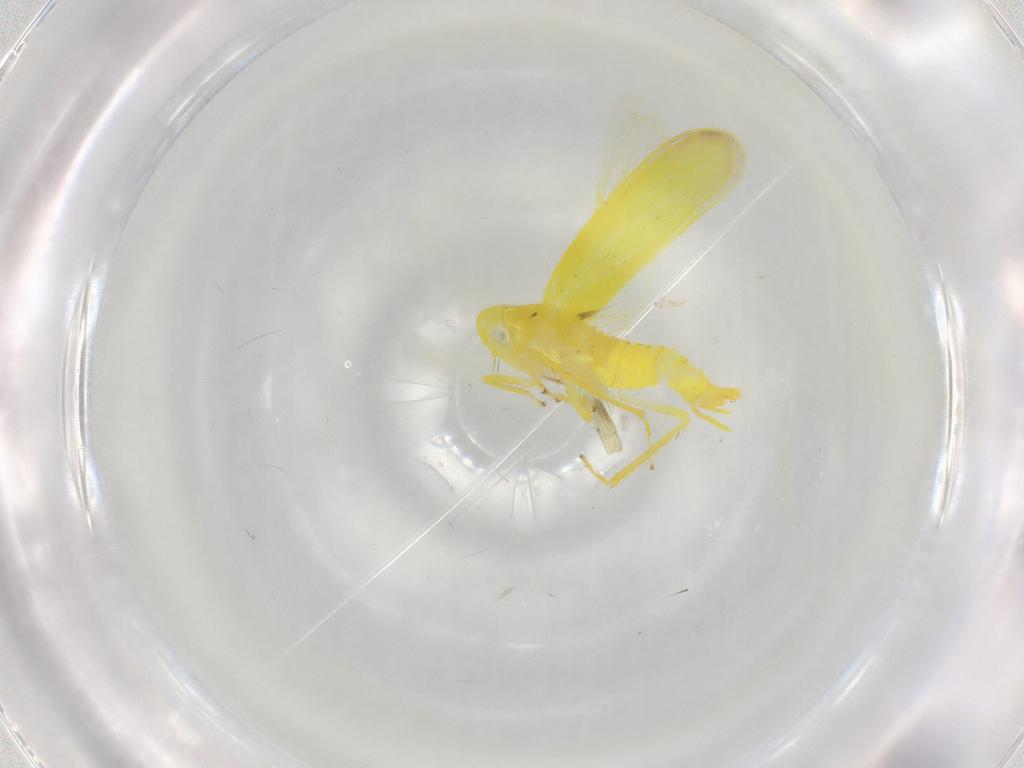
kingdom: Animalia
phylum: Arthropoda
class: Insecta
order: Hemiptera
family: Cicadellidae
